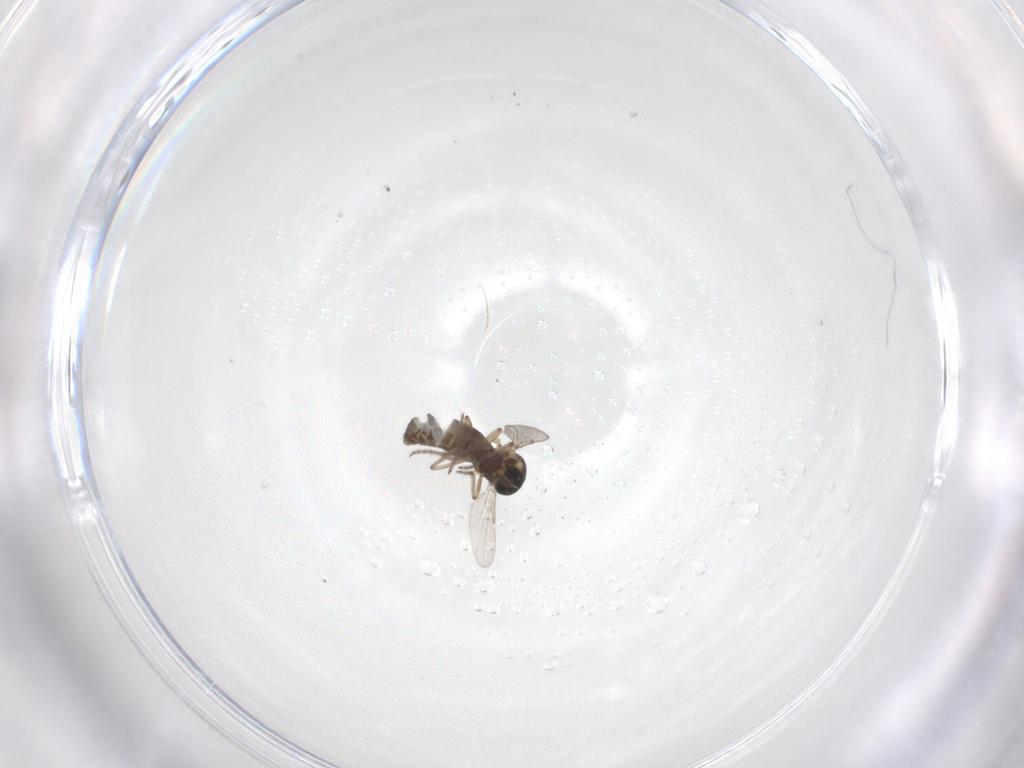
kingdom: Animalia
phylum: Arthropoda
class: Insecta
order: Diptera
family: Ceratopogonidae
